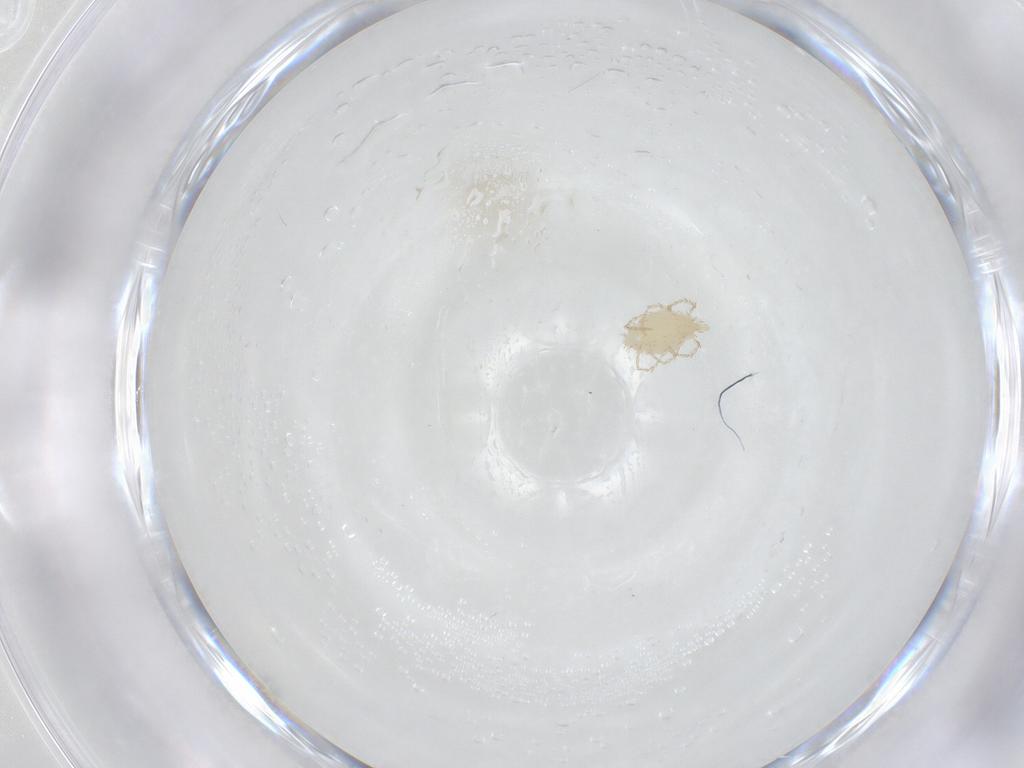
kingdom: Animalia
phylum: Arthropoda
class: Arachnida
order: Trombidiformes
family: Erythraeidae
